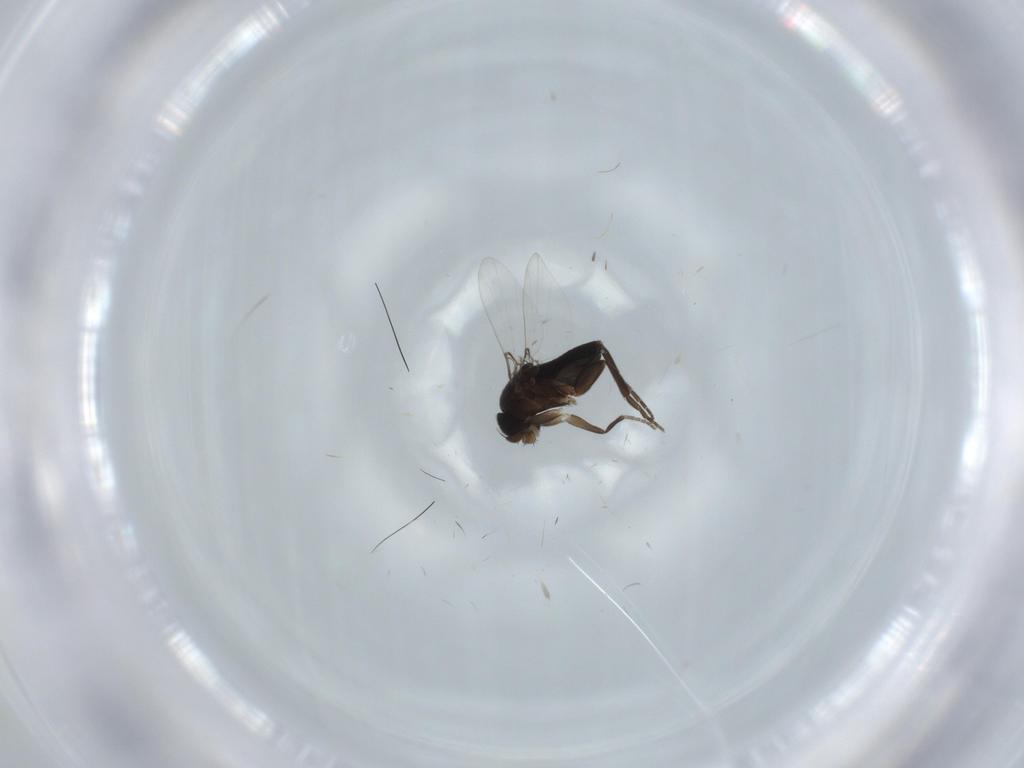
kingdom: Animalia
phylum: Arthropoda
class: Insecta
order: Diptera
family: Phoridae
